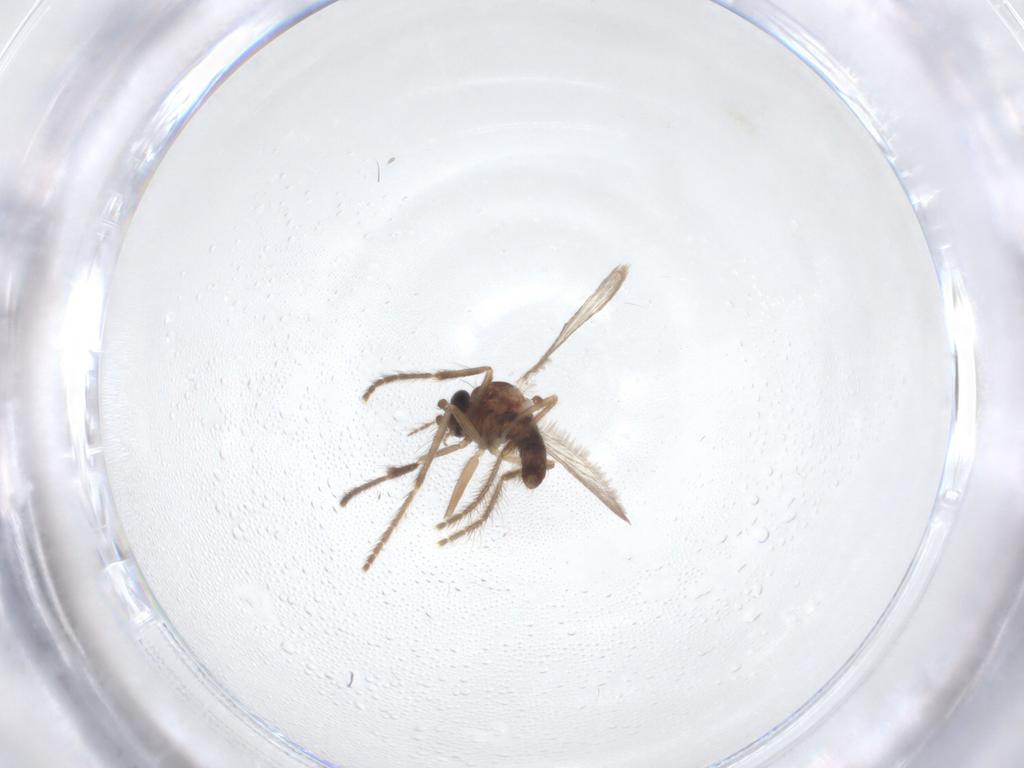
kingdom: Animalia
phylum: Arthropoda
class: Insecta
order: Diptera
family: Corethrellidae
